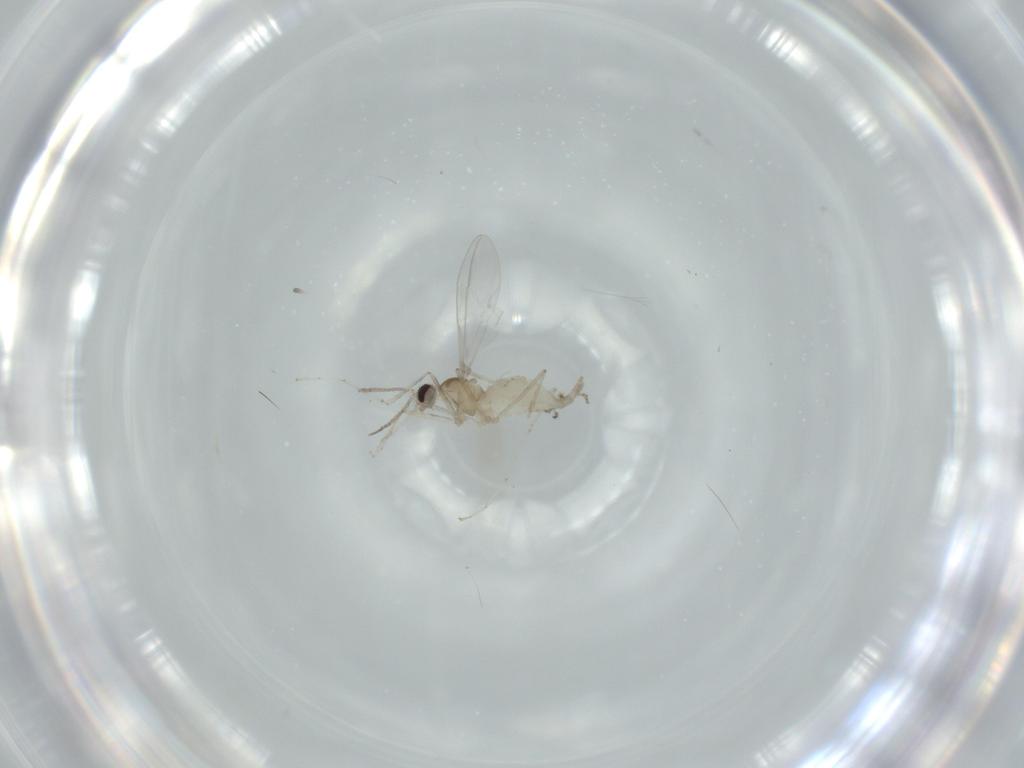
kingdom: Animalia
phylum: Arthropoda
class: Insecta
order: Diptera
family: Cecidomyiidae
